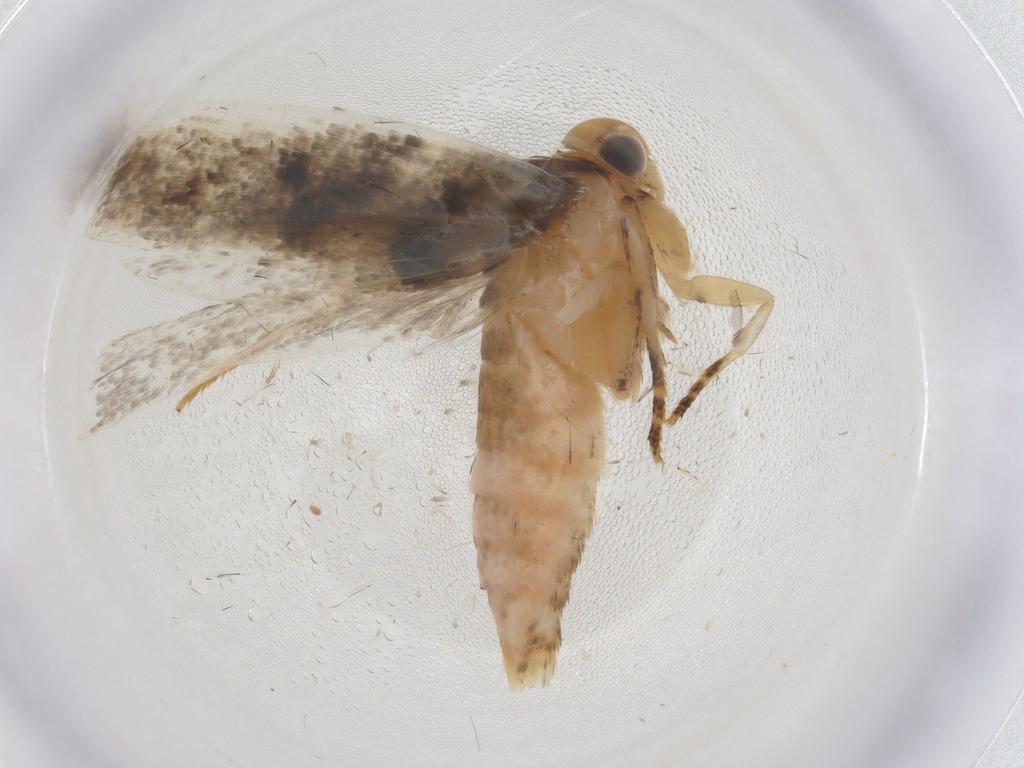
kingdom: Animalia
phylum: Arthropoda
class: Insecta
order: Lepidoptera
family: Gelechiidae
